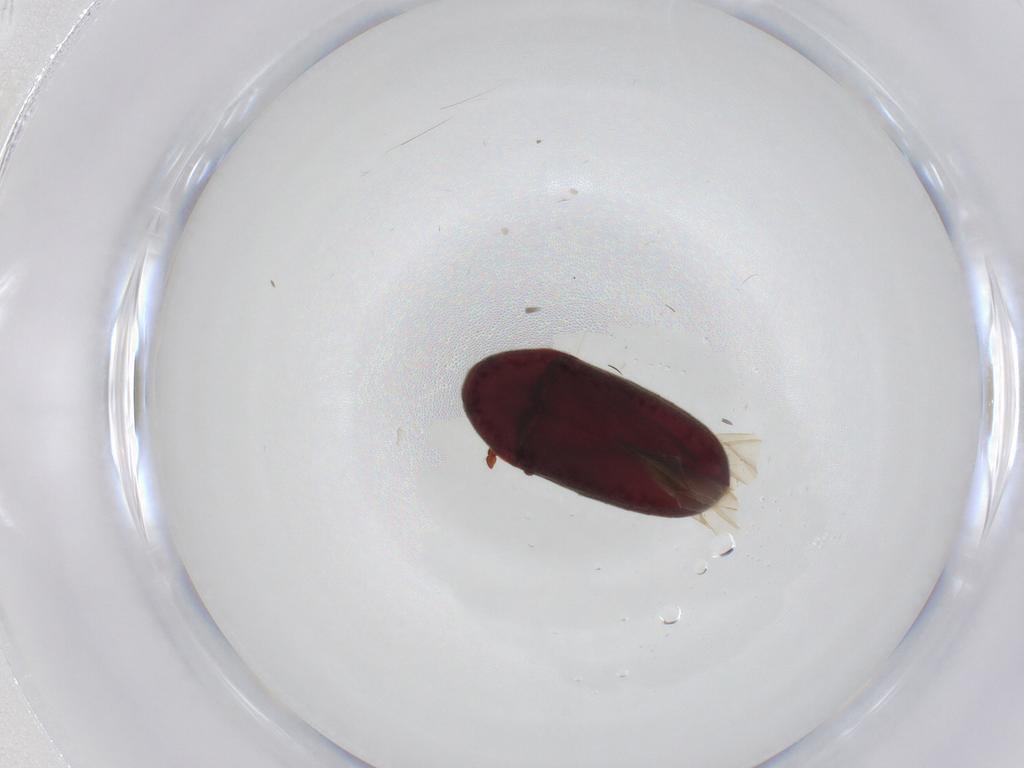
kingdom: Animalia
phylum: Arthropoda
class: Insecta
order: Coleoptera
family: Throscidae
